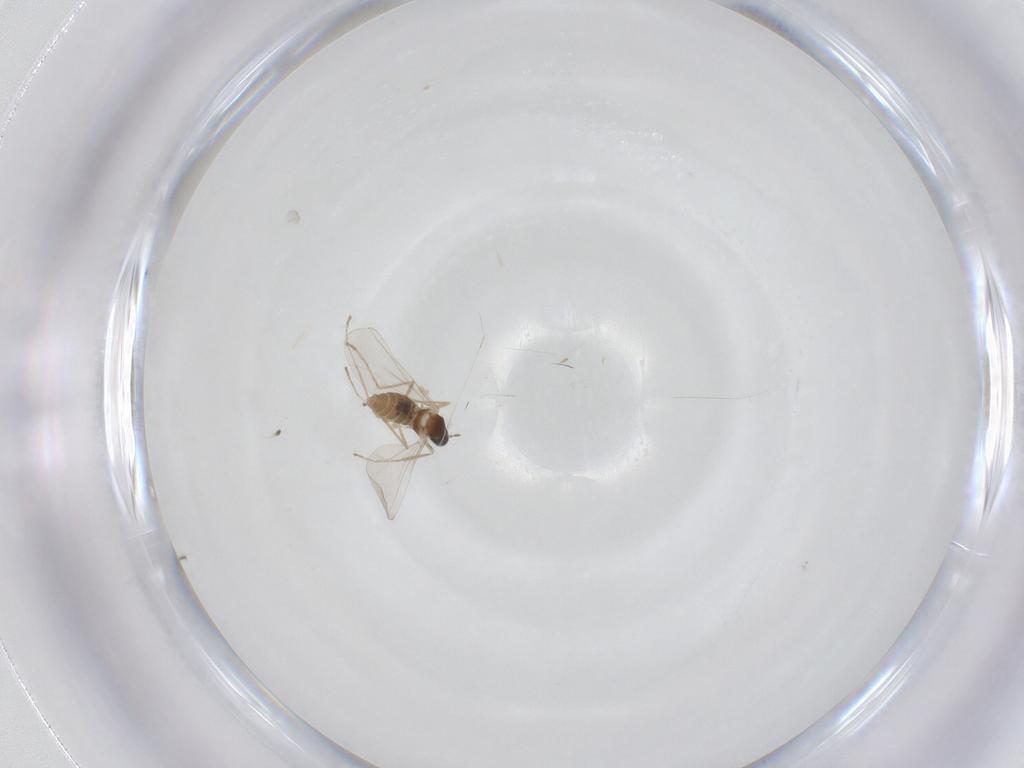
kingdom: Animalia
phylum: Arthropoda
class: Insecta
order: Diptera
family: Cecidomyiidae
